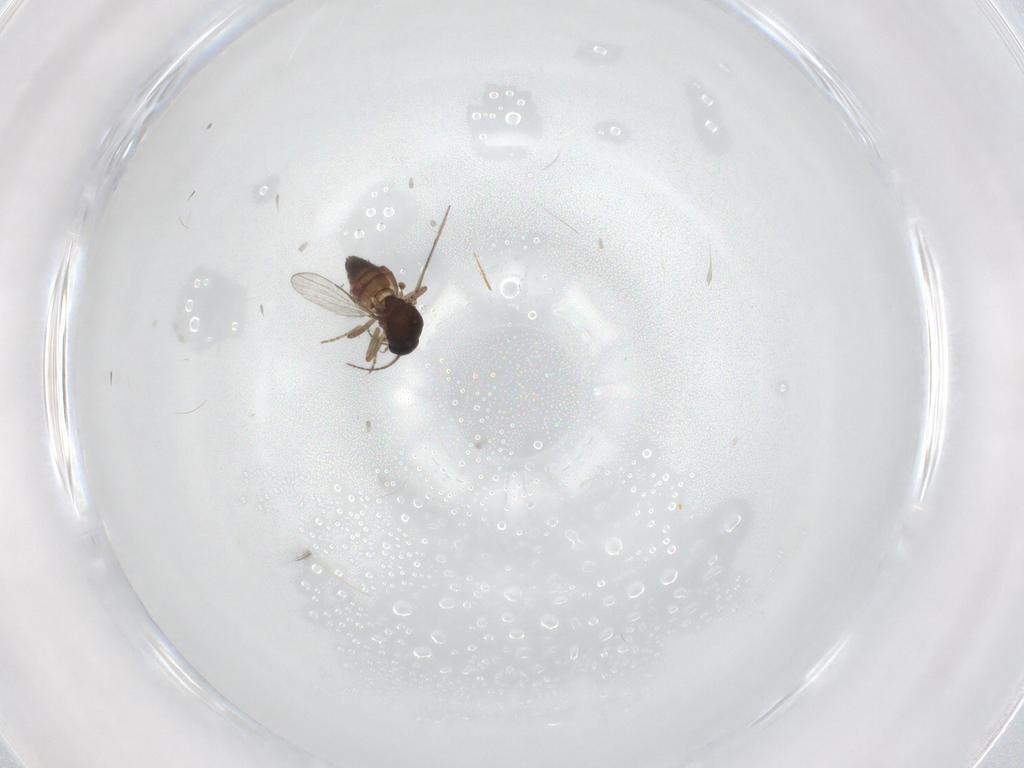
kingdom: Animalia
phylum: Arthropoda
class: Insecta
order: Diptera
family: Ceratopogonidae
